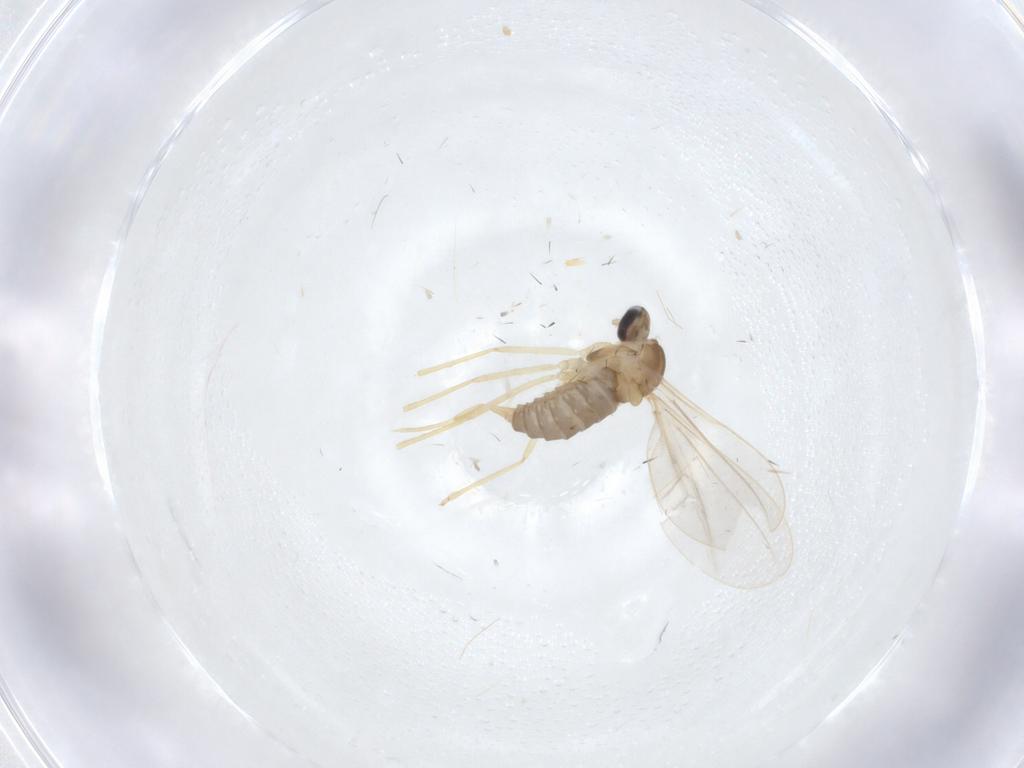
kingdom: Animalia
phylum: Arthropoda
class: Insecta
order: Diptera
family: Cecidomyiidae
